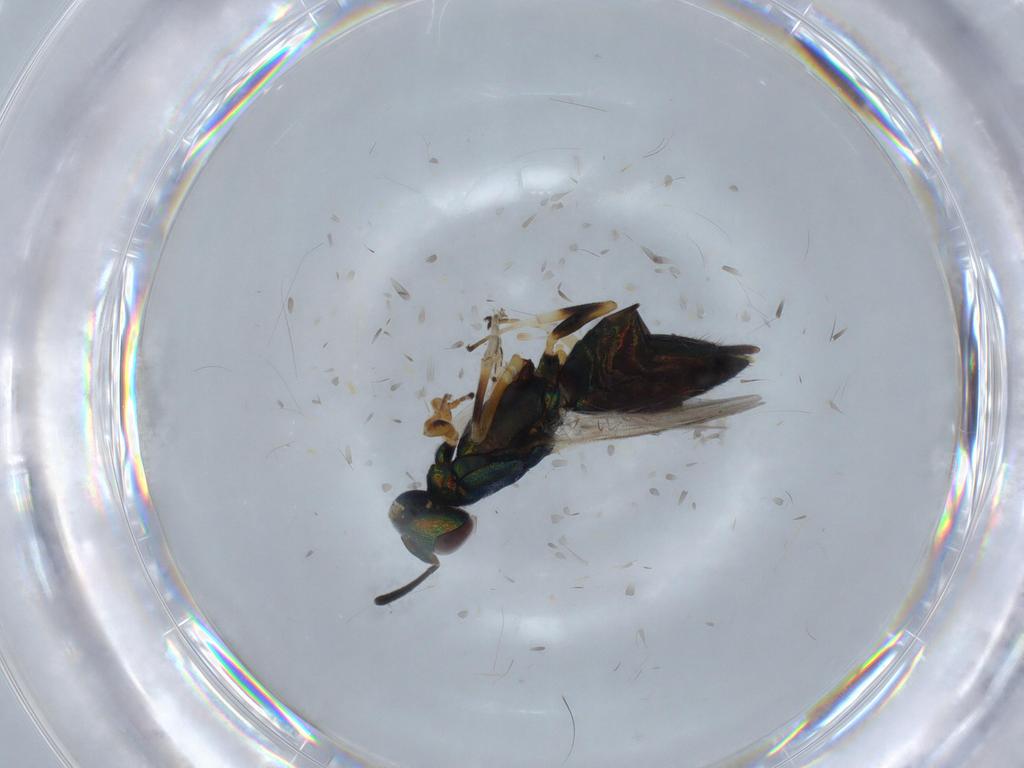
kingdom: Animalia
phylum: Arthropoda
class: Insecta
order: Hymenoptera
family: Eupelmidae
